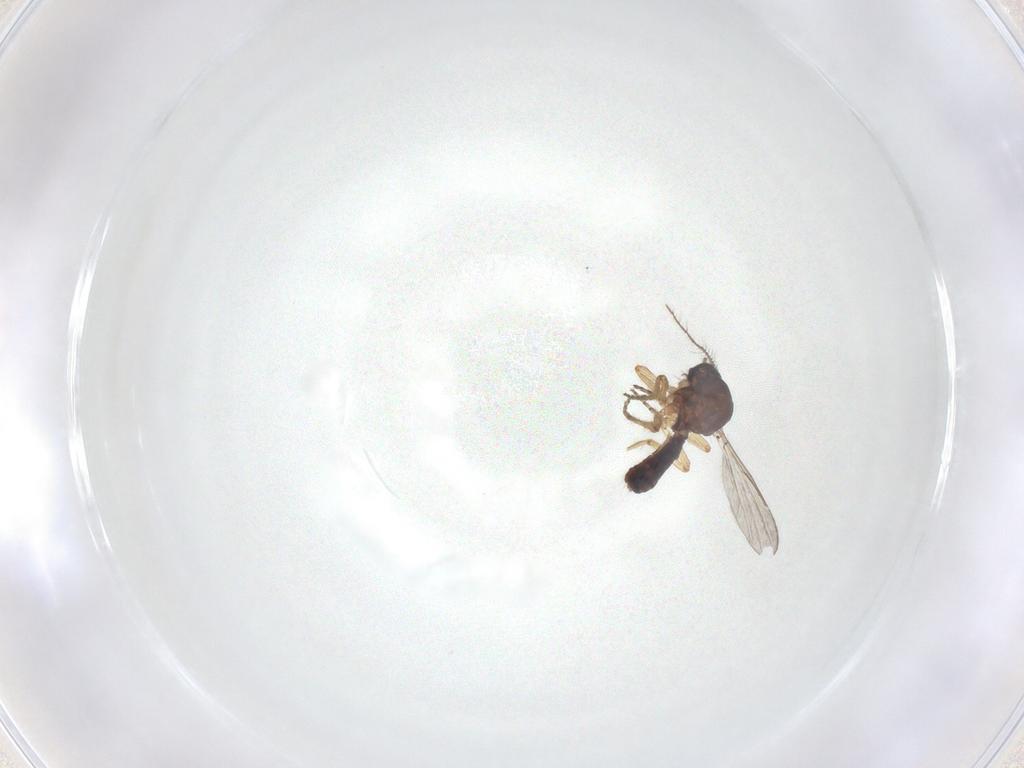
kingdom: Animalia
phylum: Arthropoda
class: Insecta
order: Diptera
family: Ceratopogonidae
